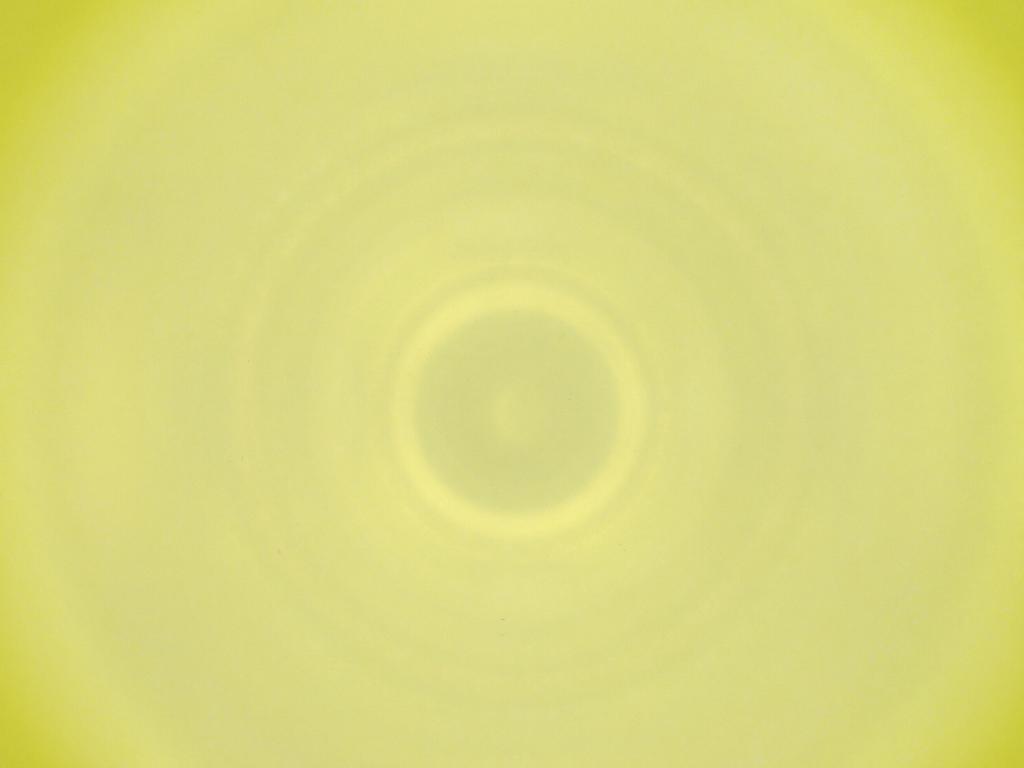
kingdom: Animalia
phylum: Arthropoda
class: Insecta
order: Diptera
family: Cecidomyiidae
